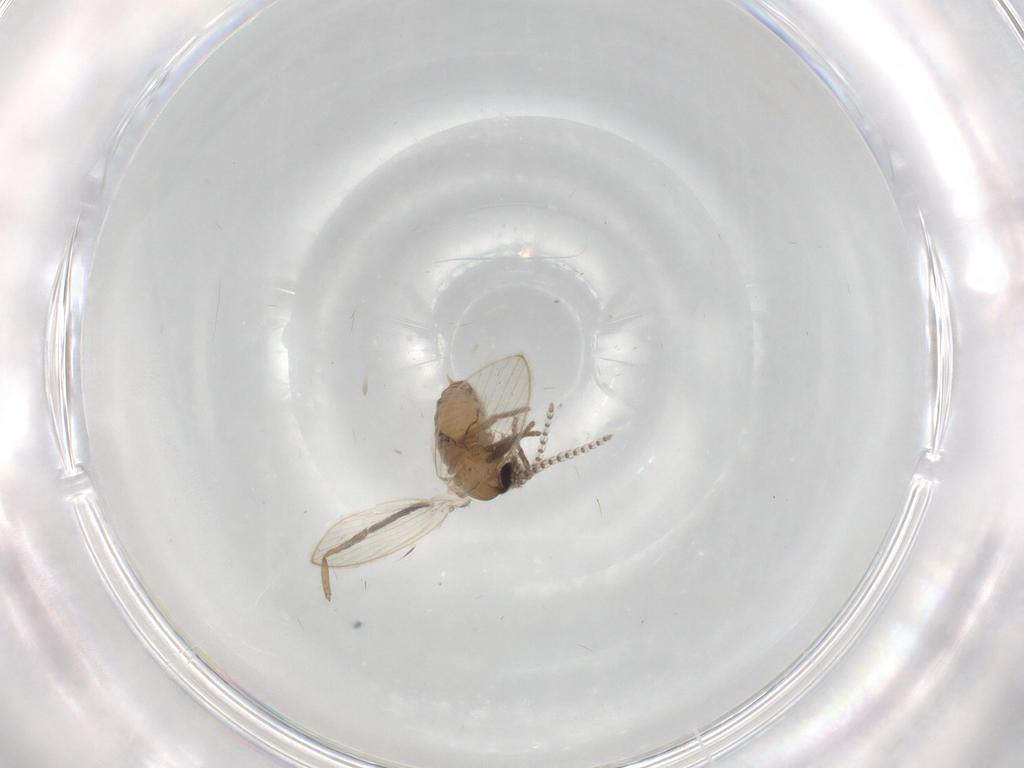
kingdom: Animalia
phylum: Arthropoda
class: Insecta
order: Diptera
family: Psychodidae
